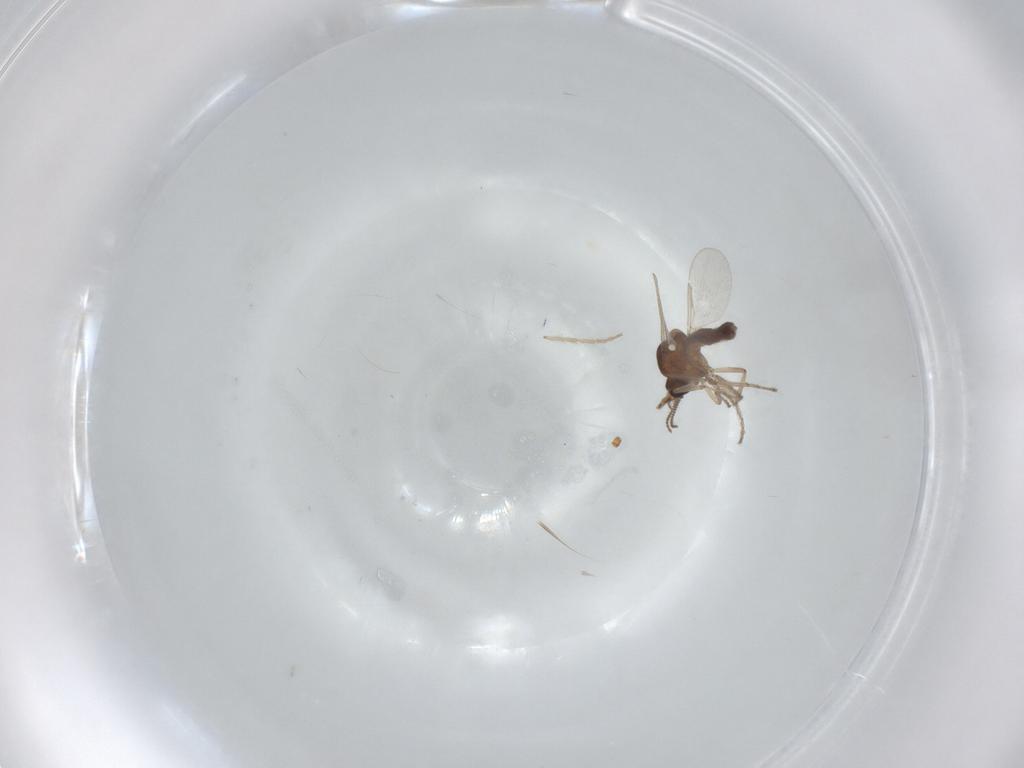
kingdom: Animalia
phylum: Arthropoda
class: Insecta
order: Diptera
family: Ceratopogonidae
